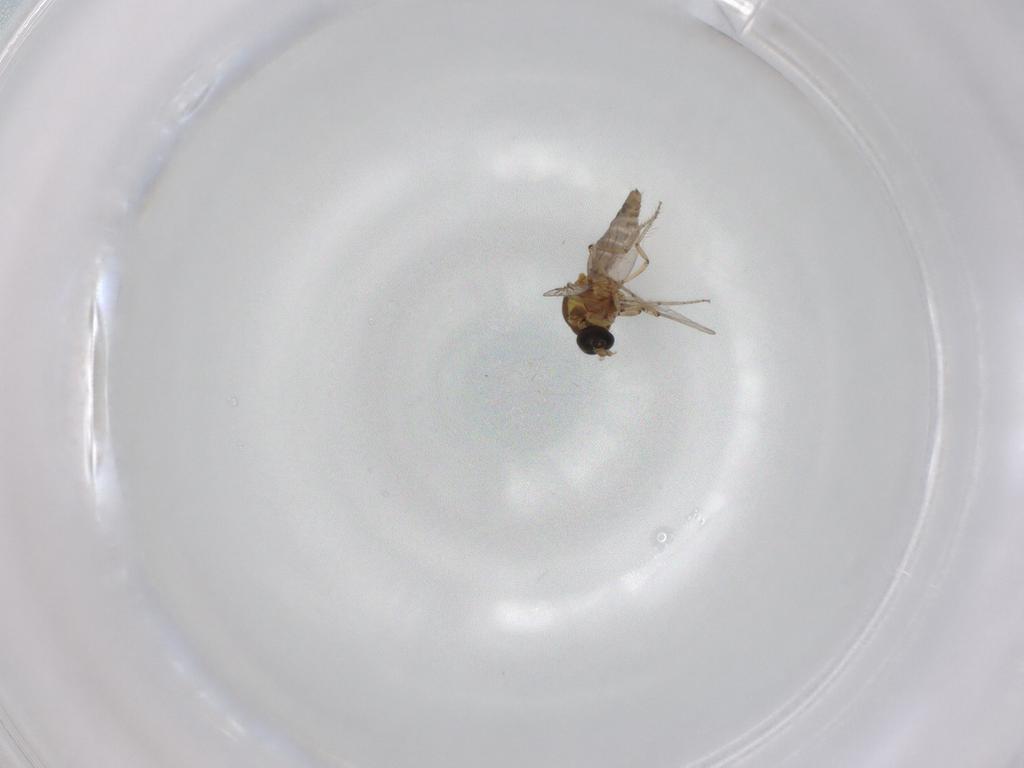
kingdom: Animalia
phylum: Arthropoda
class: Insecta
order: Diptera
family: Ceratopogonidae
